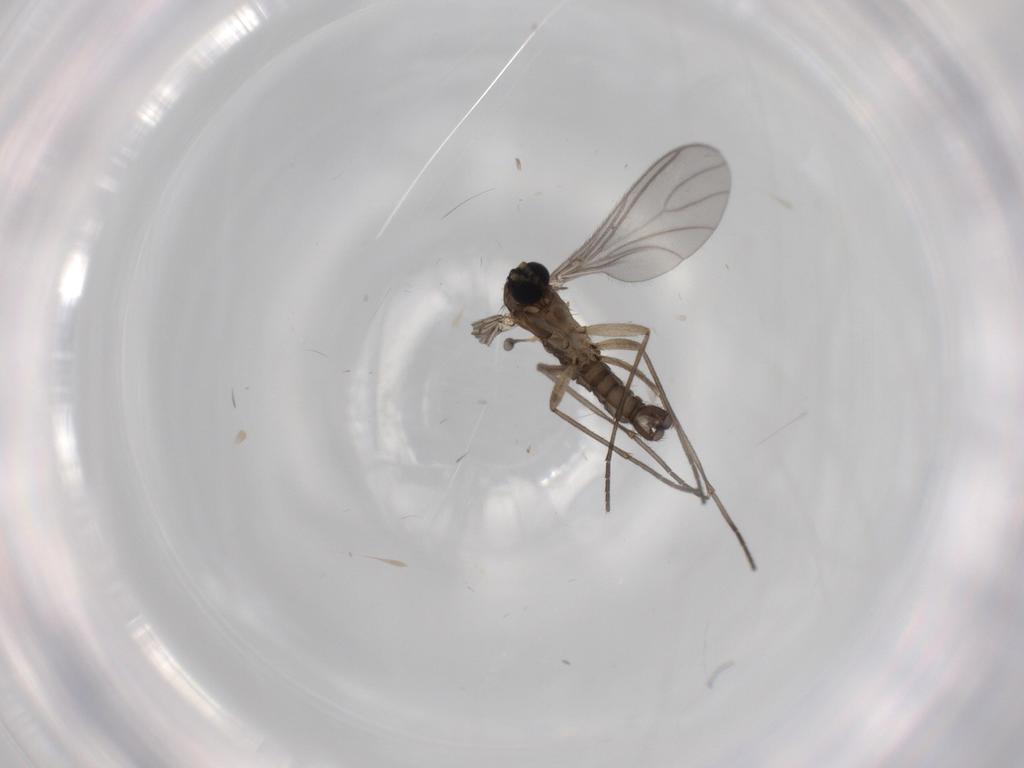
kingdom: Animalia
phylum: Arthropoda
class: Insecta
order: Diptera
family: Sciaridae
